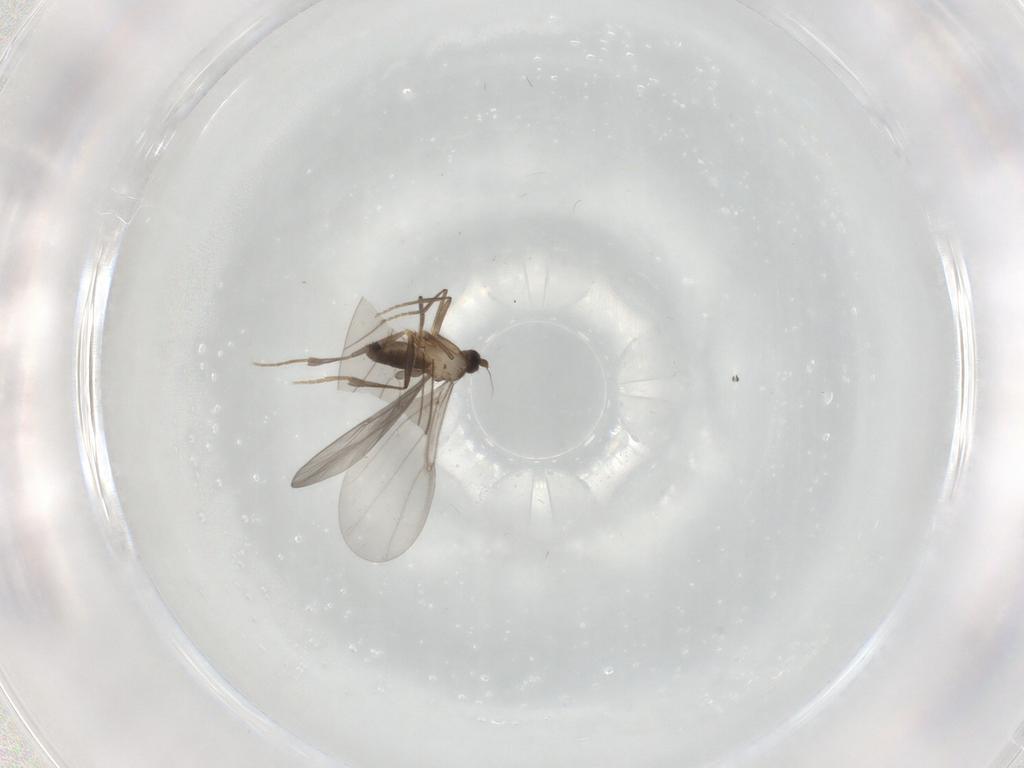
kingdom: Animalia
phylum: Arthropoda
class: Insecta
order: Diptera
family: Phoridae
